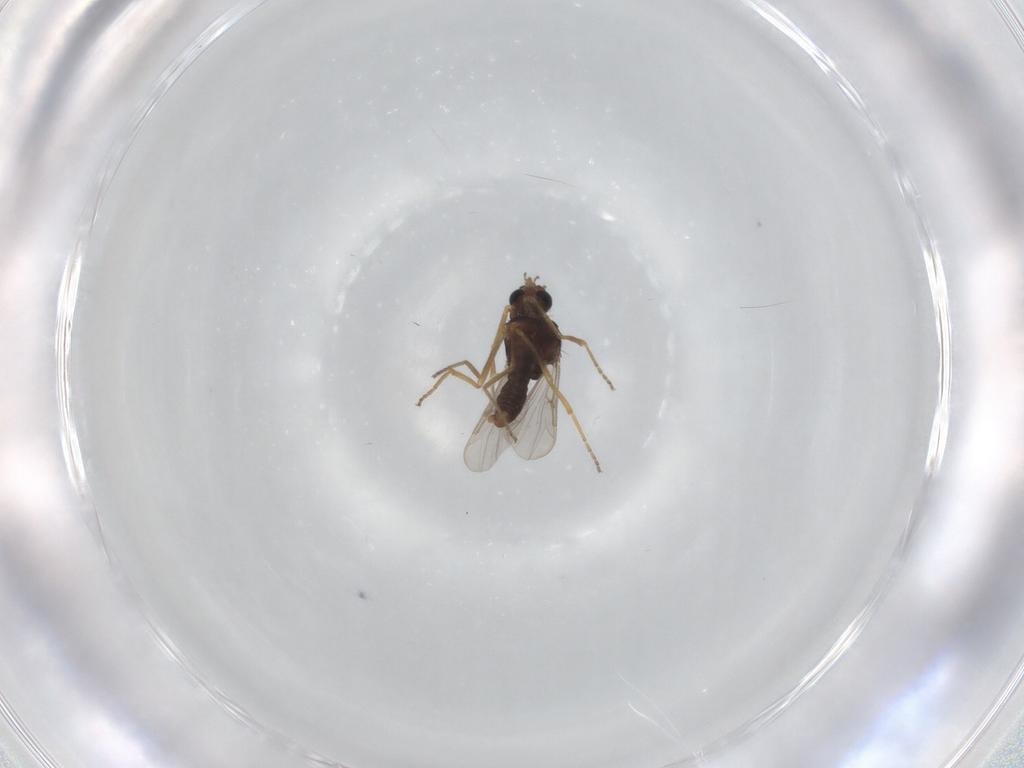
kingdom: Animalia
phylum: Arthropoda
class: Insecta
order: Diptera
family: Ceratopogonidae
